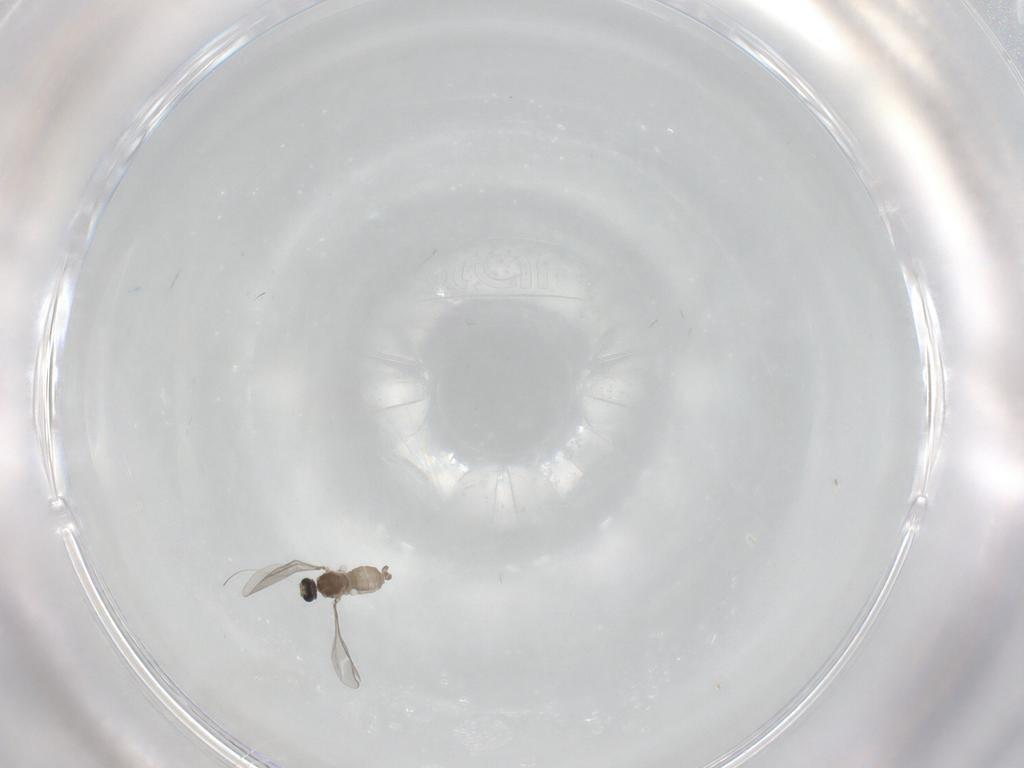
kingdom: Animalia
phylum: Arthropoda
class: Insecta
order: Diptera
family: Cecidomyiidae
